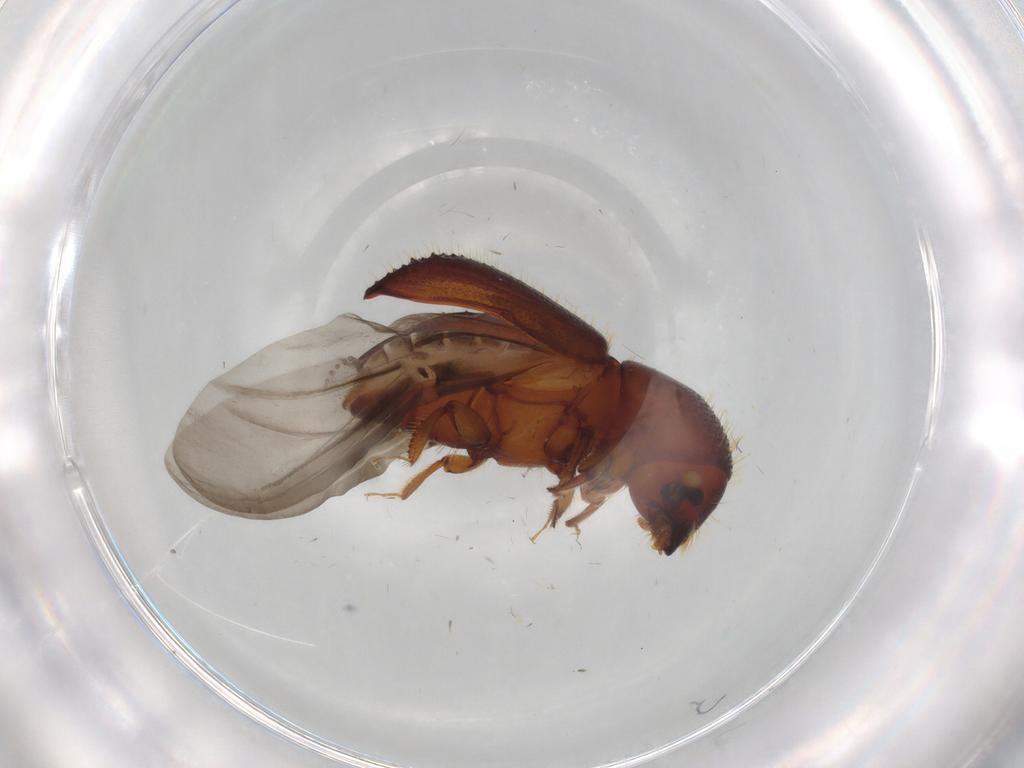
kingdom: Animalia
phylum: Arthropoda
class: Insecta
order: Coleoptera
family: Curculionidae
